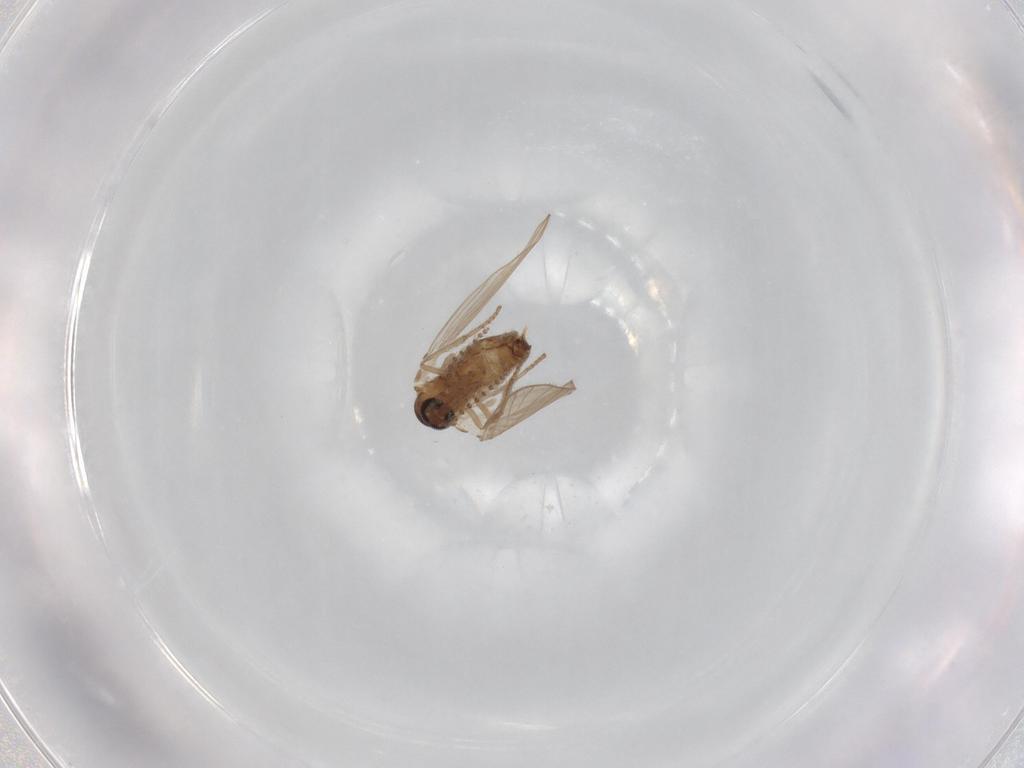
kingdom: Animalia
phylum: Arthropoda
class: Insecta
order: Diptera
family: Psychodidae
